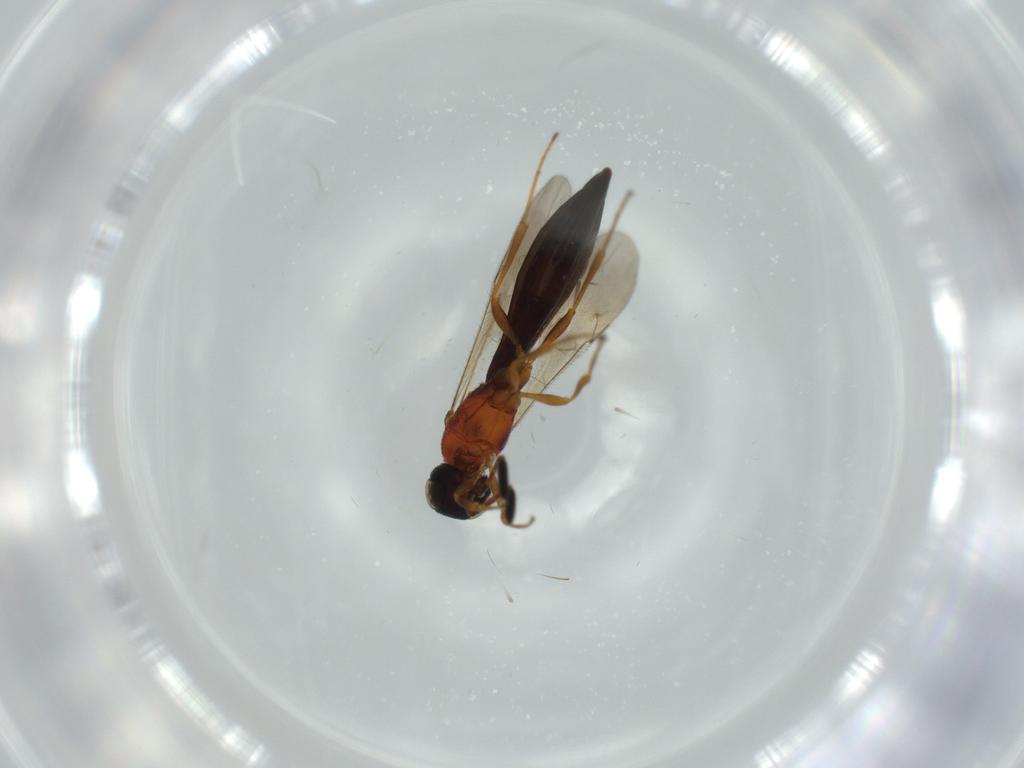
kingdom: Animalia
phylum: Arthropoda
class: Insecta
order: Hymenoptera
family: Scelionidae
